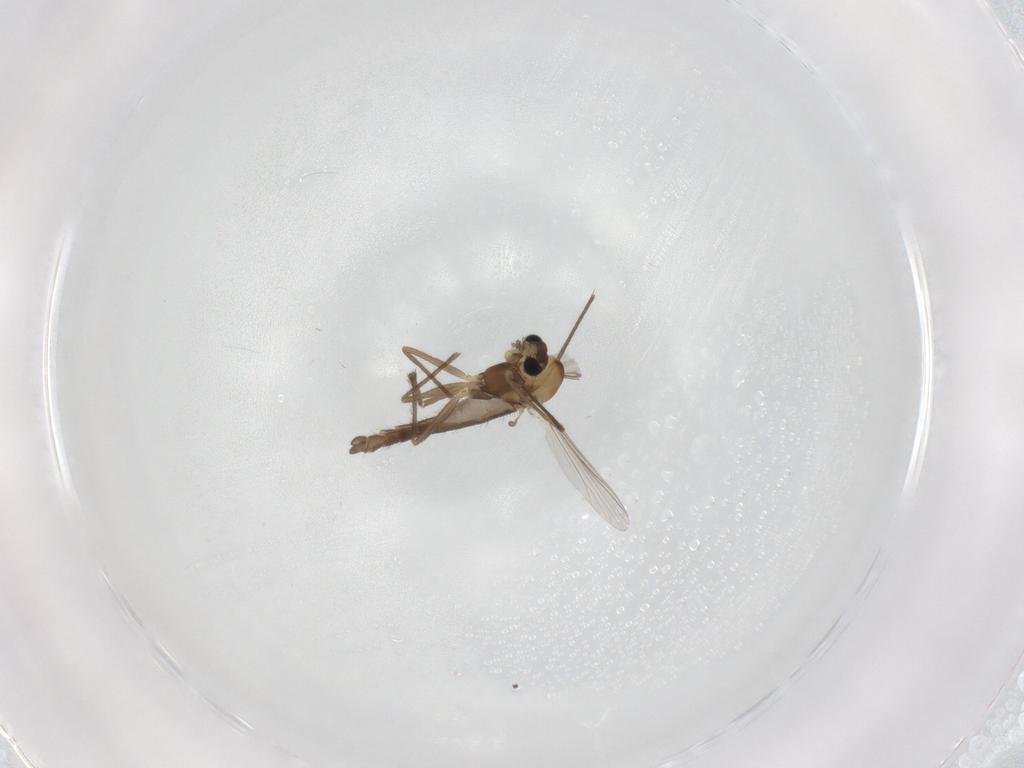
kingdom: Animalia
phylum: Arthropoda
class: Insecta
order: Diptera
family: Chironomidae
